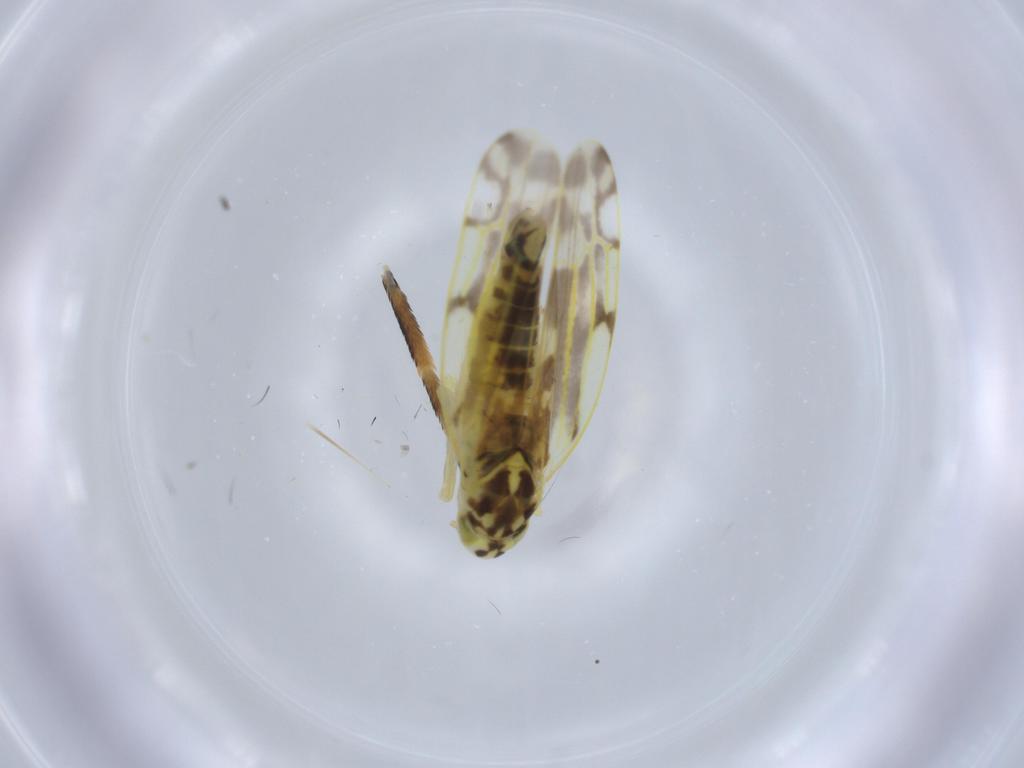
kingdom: Animalia
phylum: Arthropoda
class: Insecta
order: Hemiptera
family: Cicadellidae
